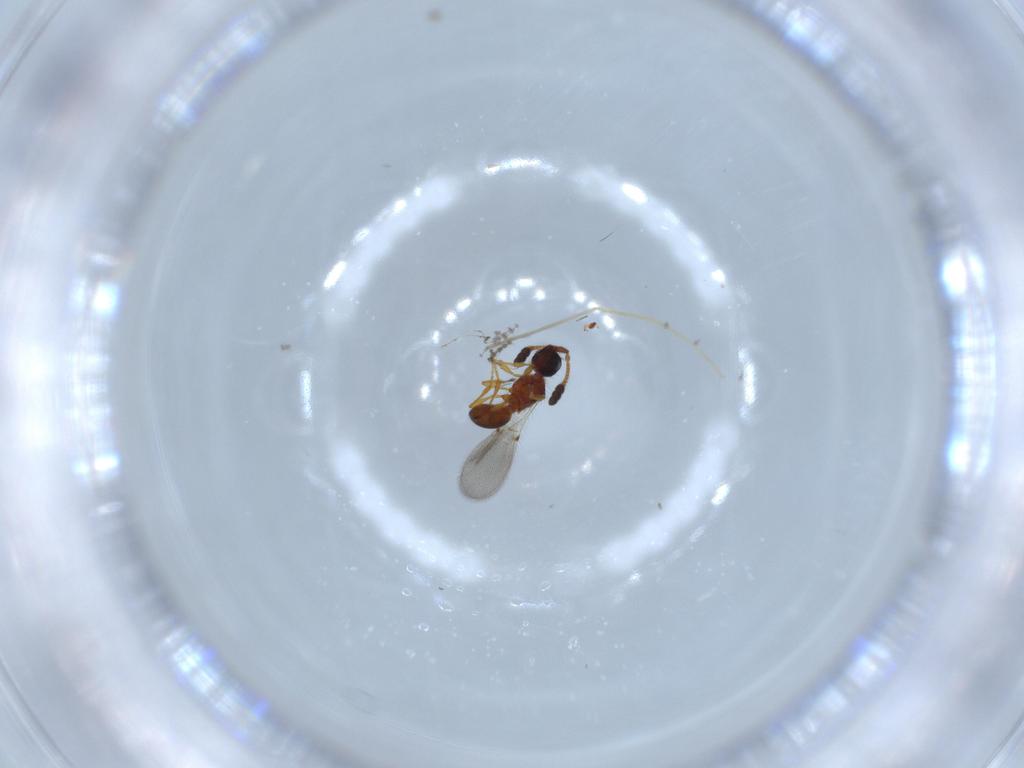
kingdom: Animalia
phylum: Arthropoda
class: Insecta
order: Hymenoptera
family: Diapriidae
